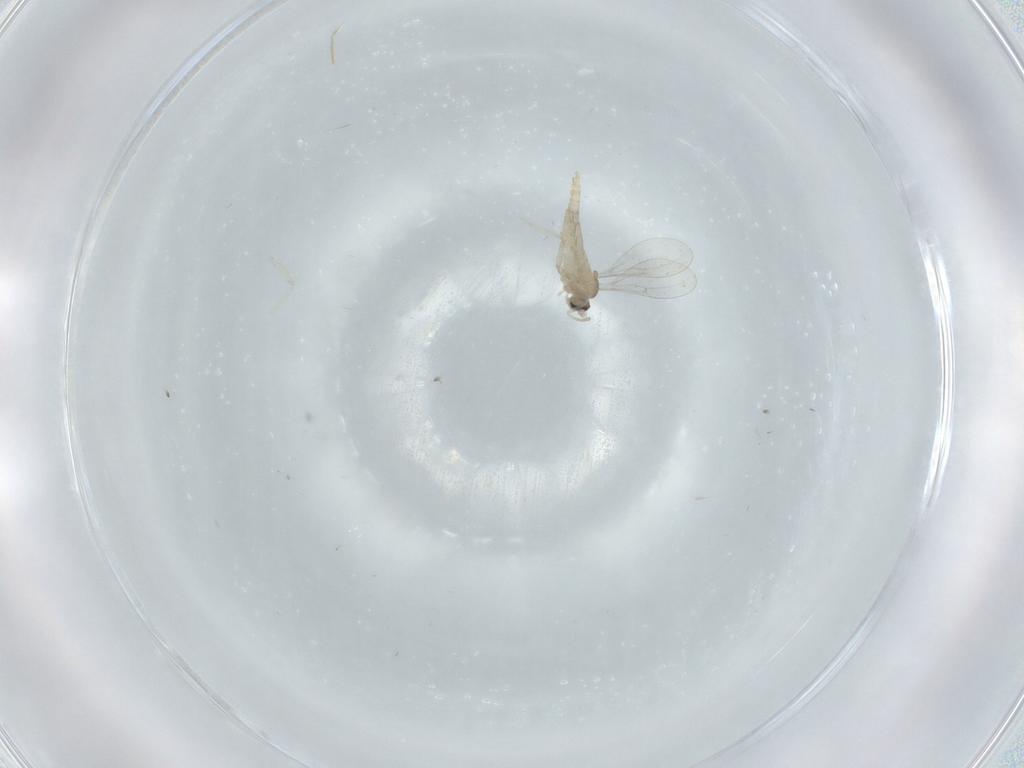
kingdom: Animalia
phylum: Arthropoda
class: Insecta
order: Diptera
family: Cecidomyiidae
